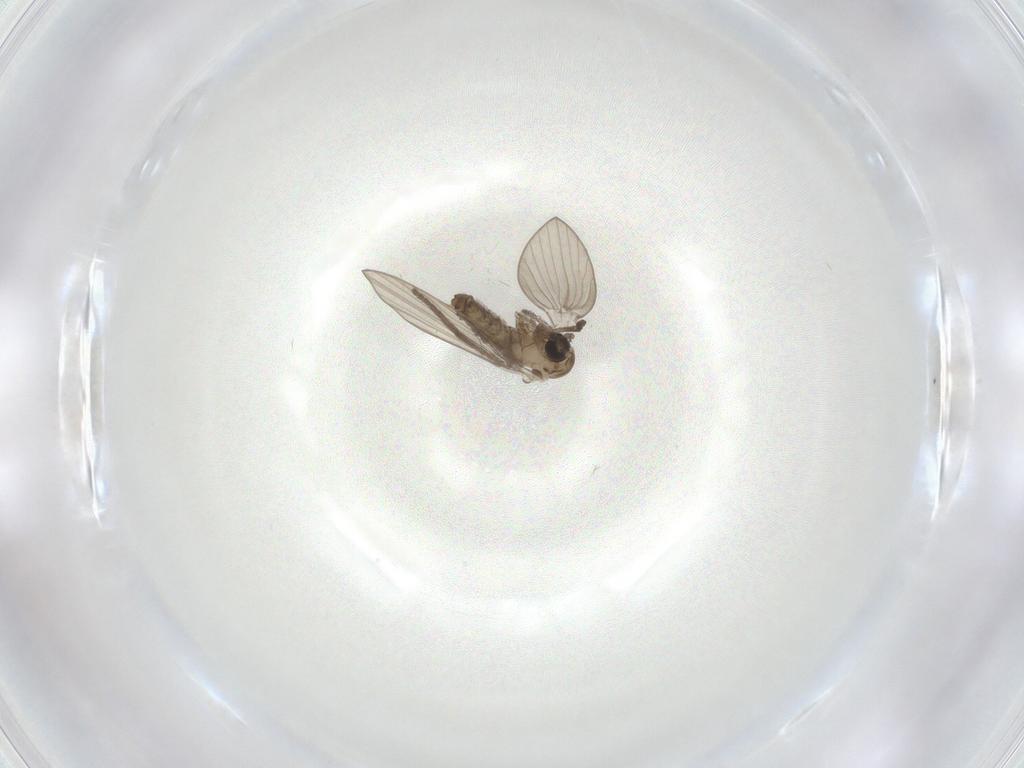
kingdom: Animalia
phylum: Arthropoda
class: Insecta
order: Diptera
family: Psychodidae
